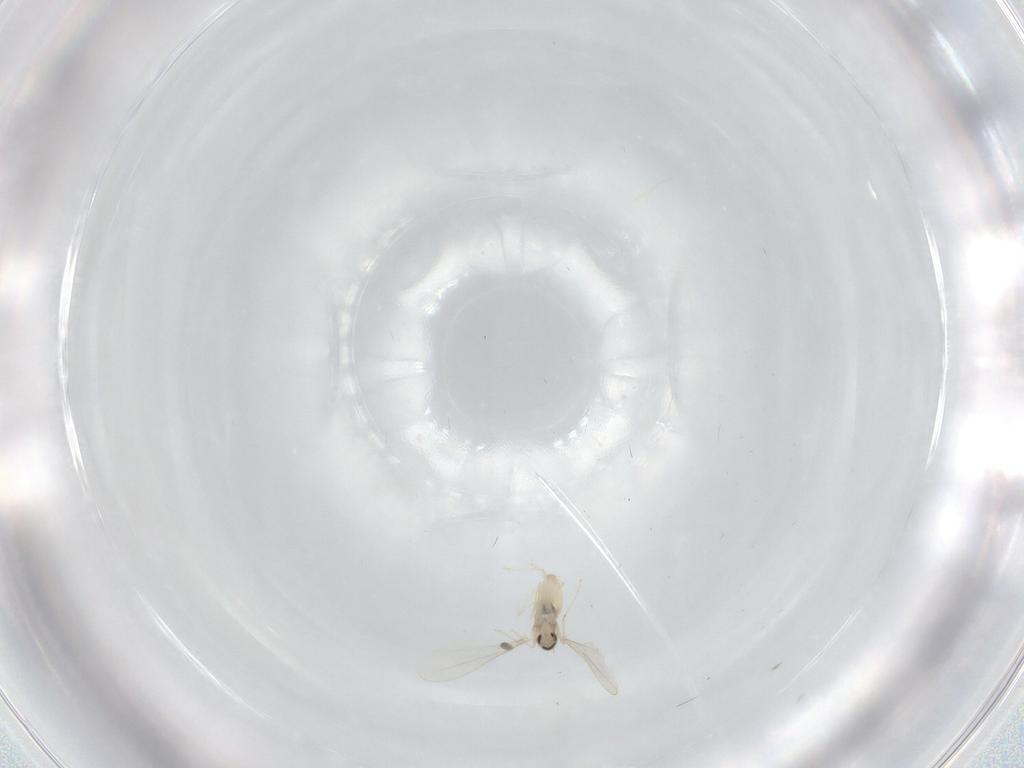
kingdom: Animalia
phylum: Arthropoda
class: Insecta
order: Diptera
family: Cecidomyiidae
